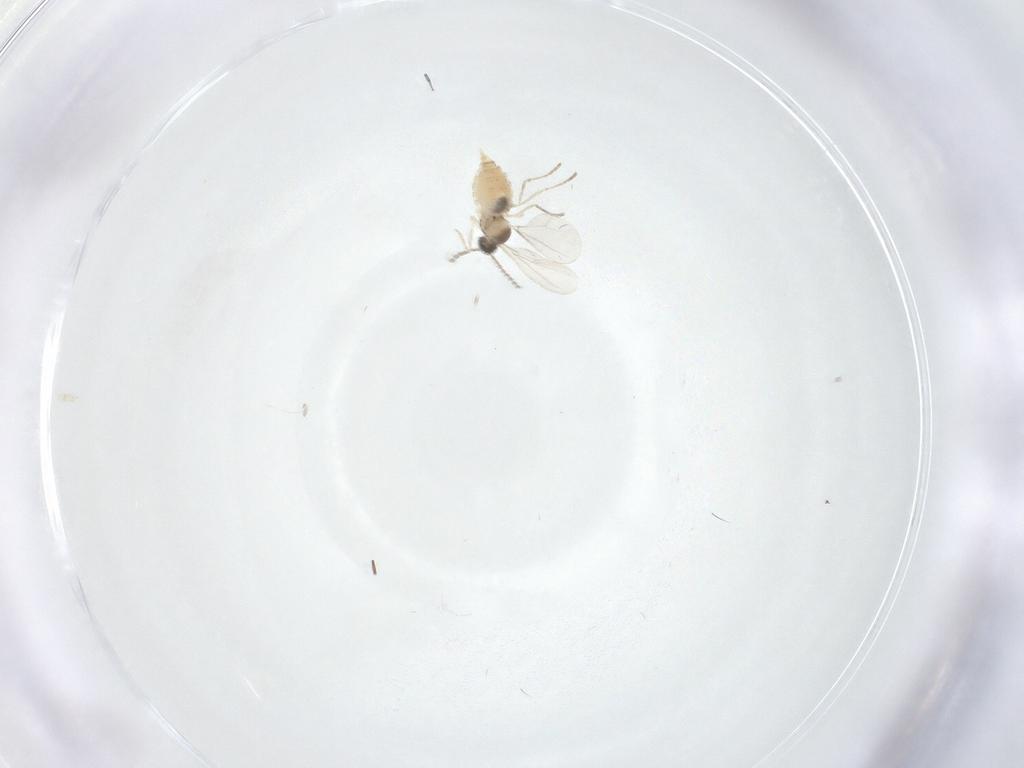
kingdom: Animalia
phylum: Arthropoda
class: Insecta
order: Diptera
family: Cecidomyiidae
